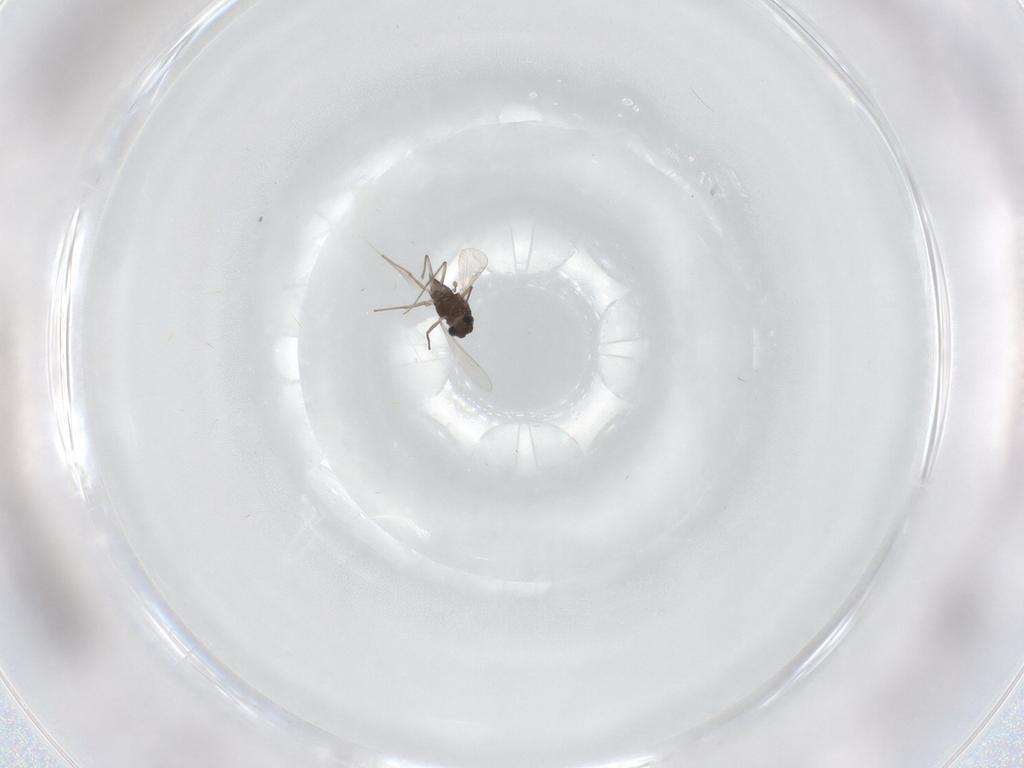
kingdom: Animalia
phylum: Arthropoda
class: Insecta
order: Diptera
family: Chironomidae
